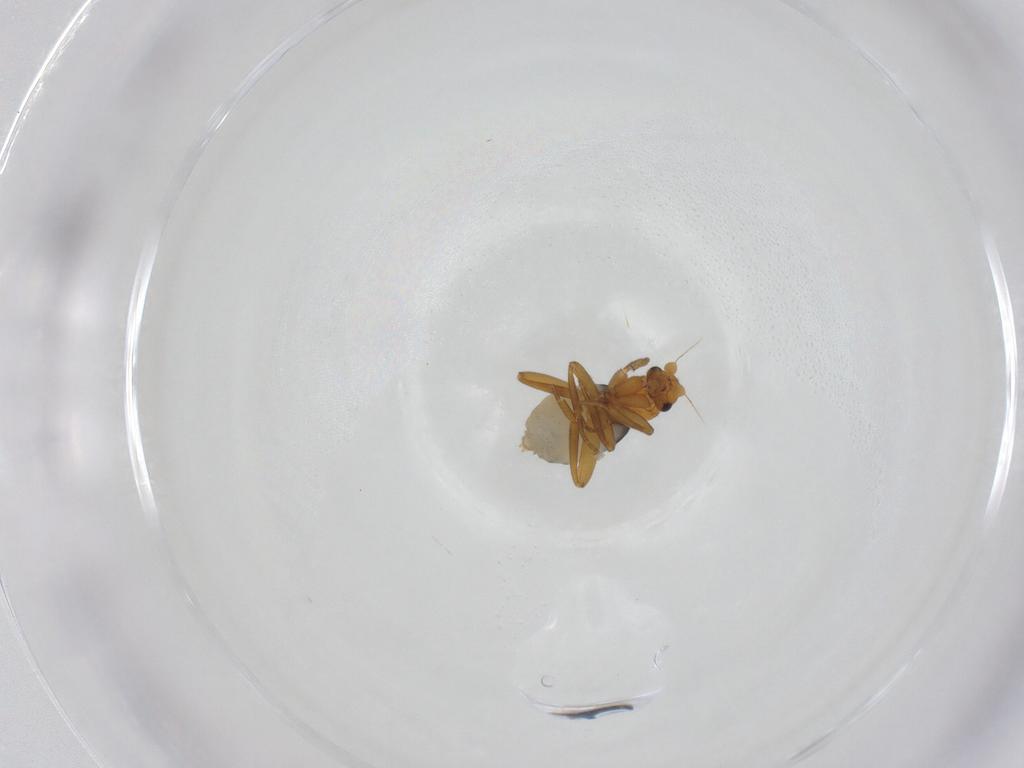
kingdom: Animalia
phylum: Arthropoda
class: Insecta
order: Diptera
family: Phoridae
